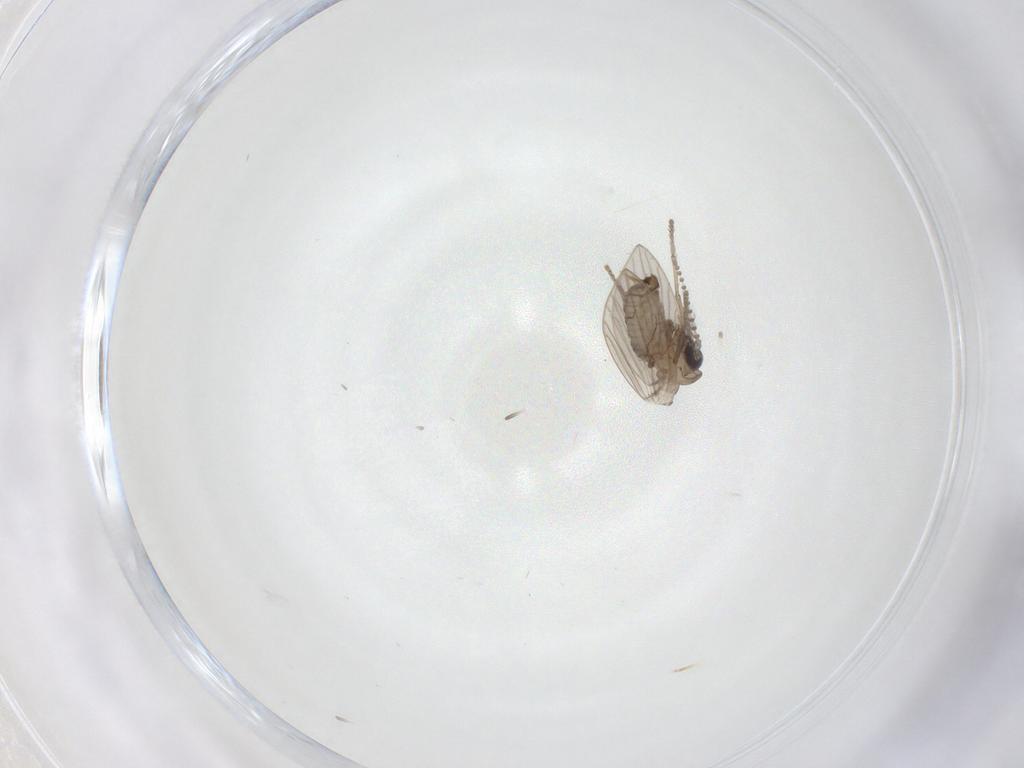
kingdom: Animalia
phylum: Arthropoda
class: Insecta
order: Diptera
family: Psychodidae
